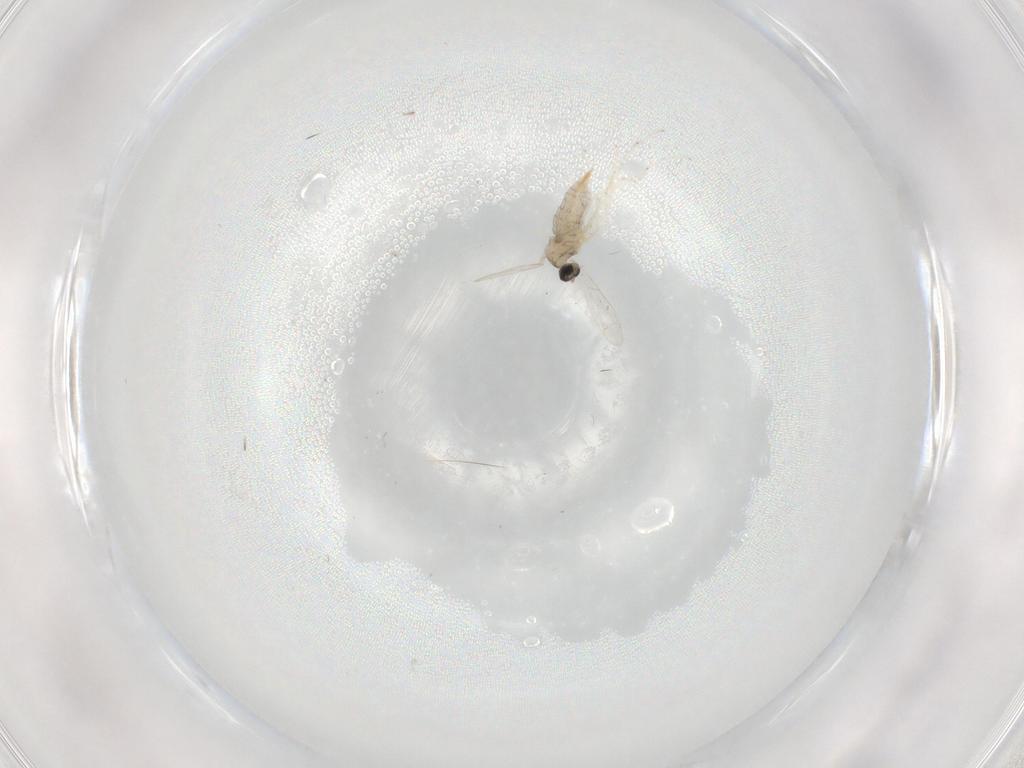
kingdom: Animalia
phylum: Arthropoda
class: Insecta
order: Diptera
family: Cecidomyiidae
